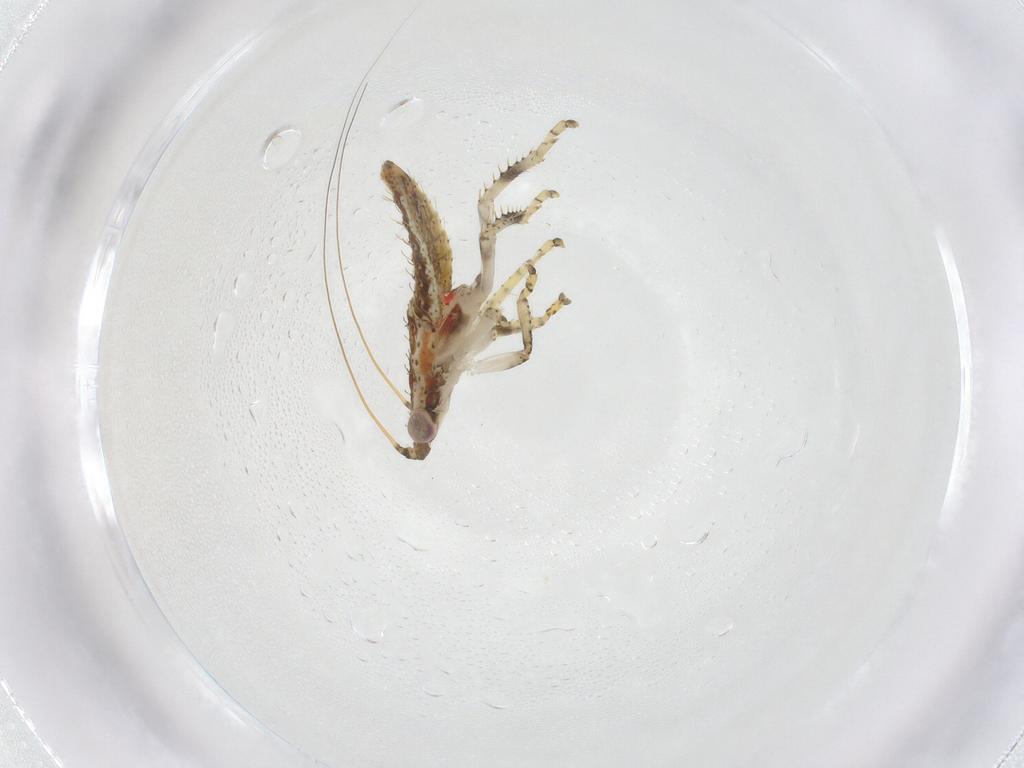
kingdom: Animalia
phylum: Arthropoda
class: Insecta
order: Hemiptera
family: Cicadellidae
